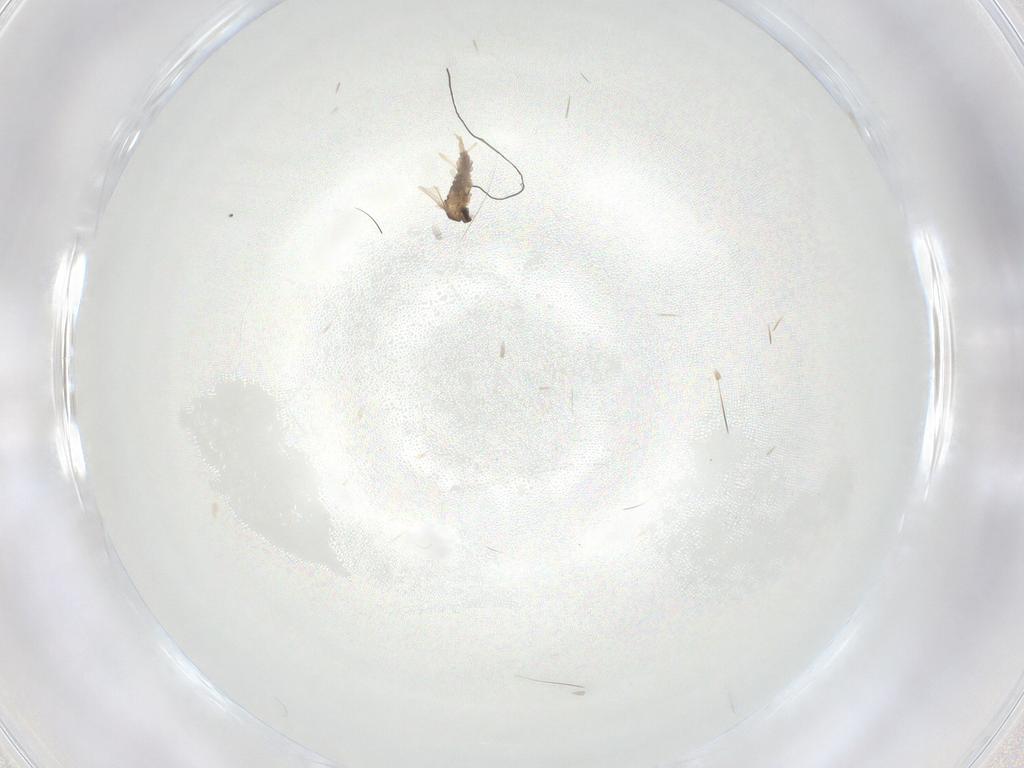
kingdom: Animalia
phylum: Arthropoda
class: Insecta
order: Diptera
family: Cecidomyiidae
